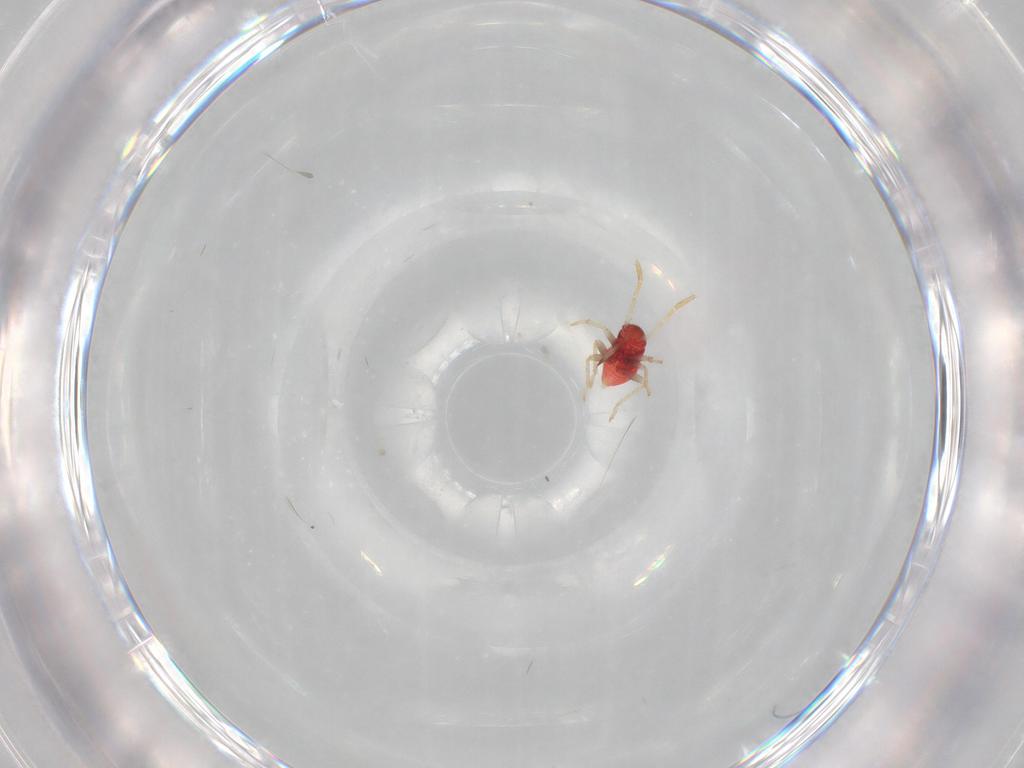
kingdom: Animalia
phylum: Arthropoda
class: Insecta
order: Hemiptera
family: Miridae
